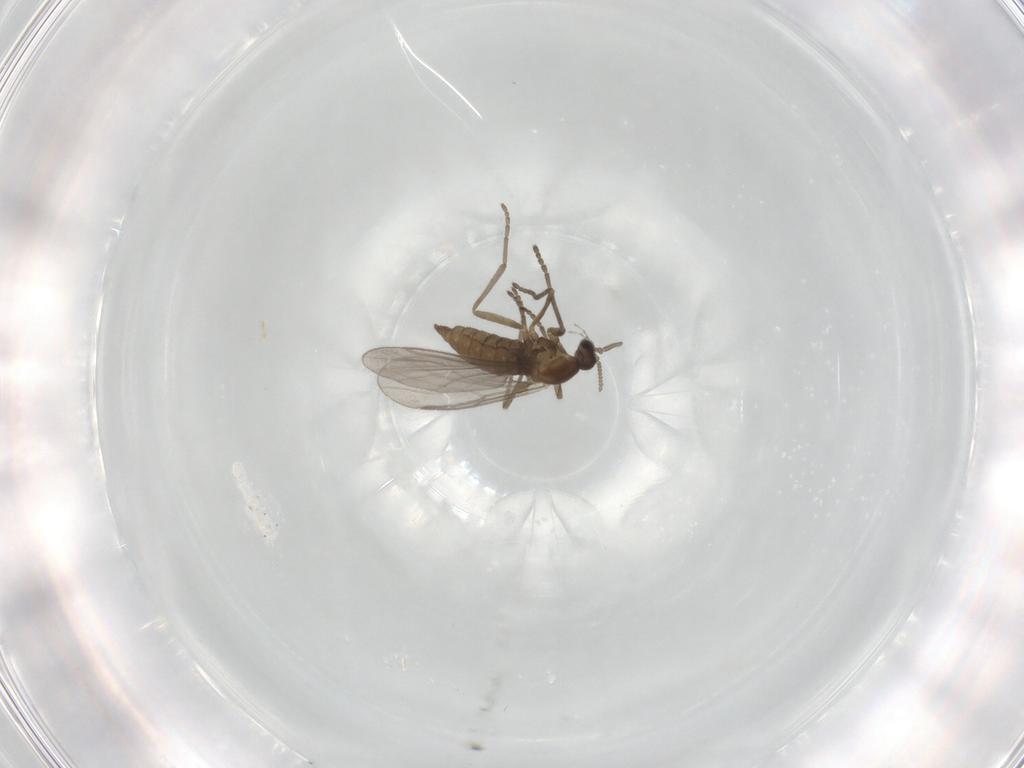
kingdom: Animalia
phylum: Arthropoda
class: Insecta
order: Diptera
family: Cecidomyiidae
